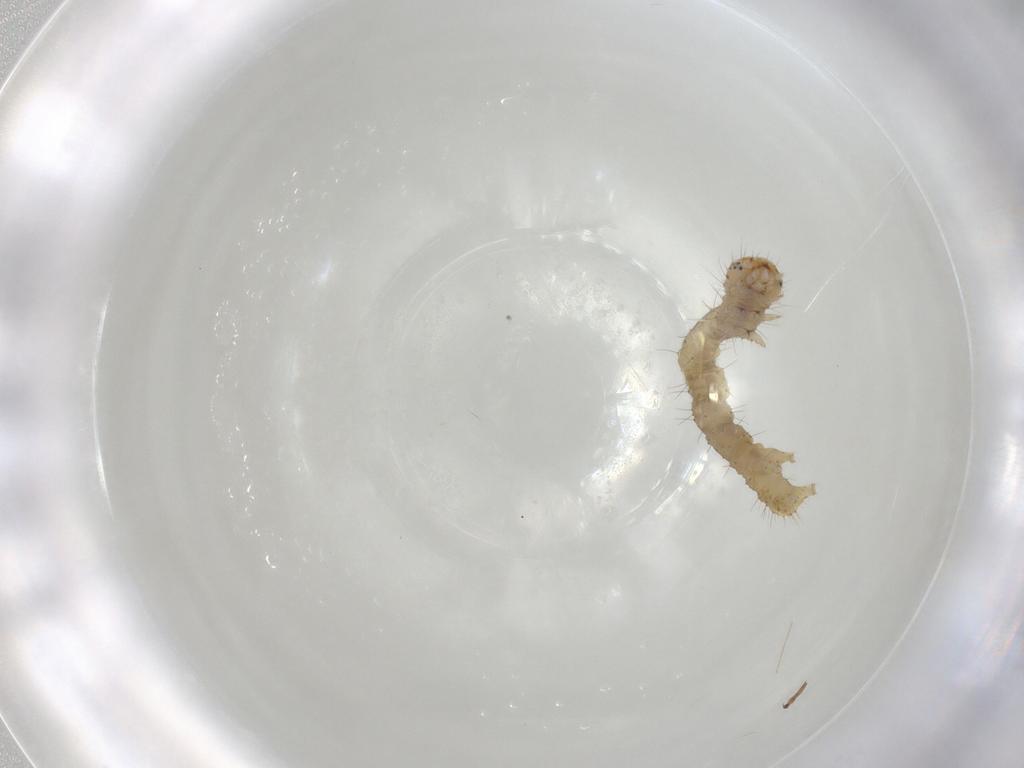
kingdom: Animalia
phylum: Arthropoda
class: Insecta
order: Lepidoptera
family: Geometridae
